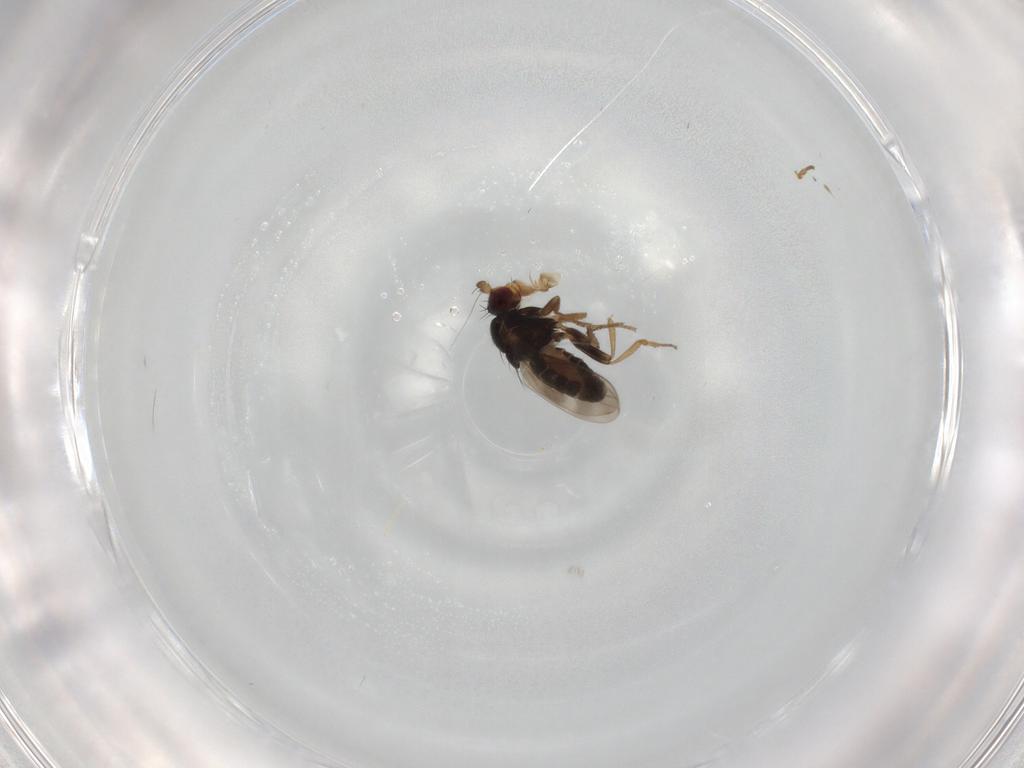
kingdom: Animalia
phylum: Arthropoda
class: Insecta
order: Diptera
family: Sphaeroceridae
